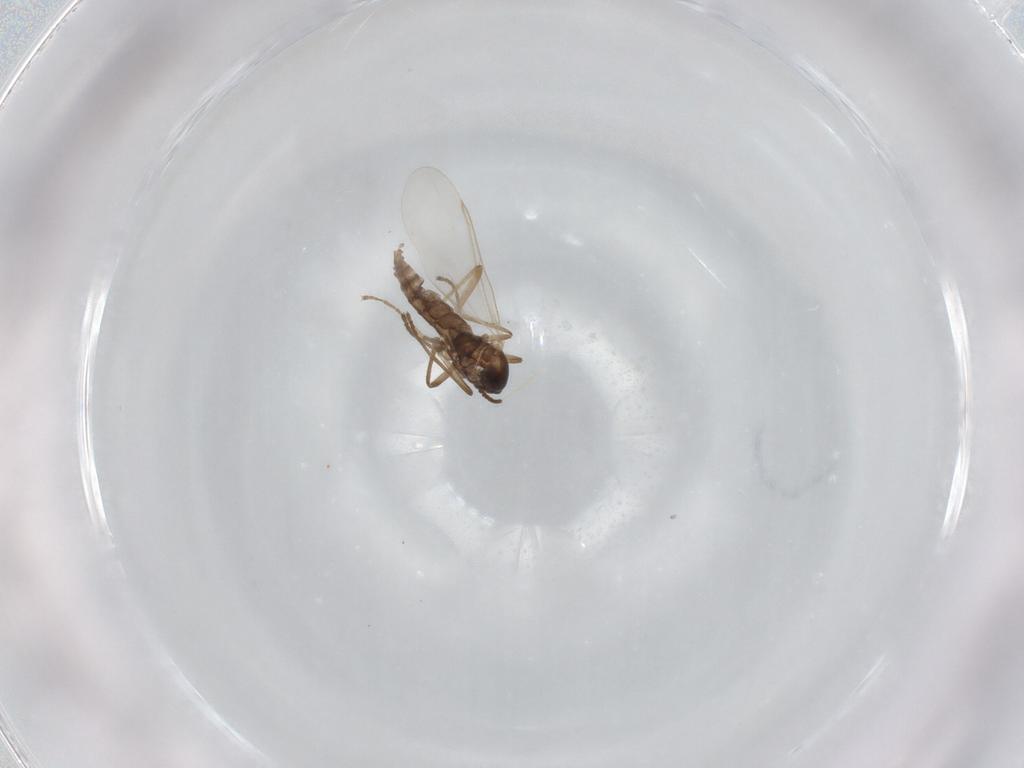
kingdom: Animalia
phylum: Arthropoda
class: Insecta
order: Diptera
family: Cecidomyiidae
